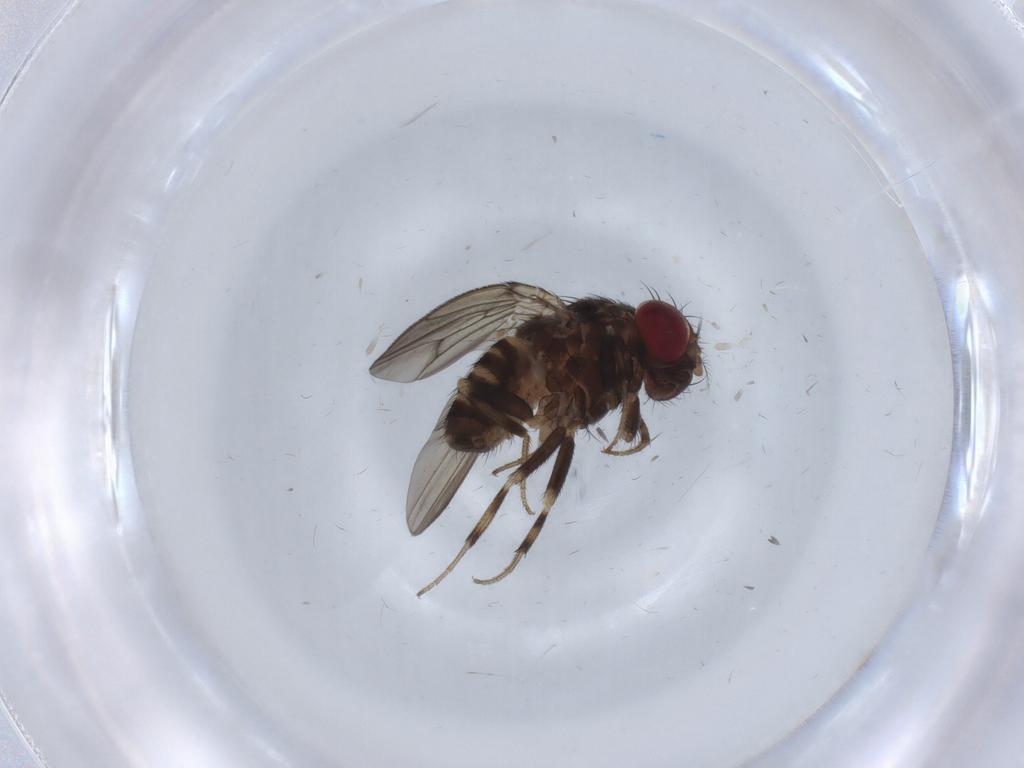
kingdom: Animalia
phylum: Arthropoda
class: Insecta
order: Diptera
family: Drosophilidae
